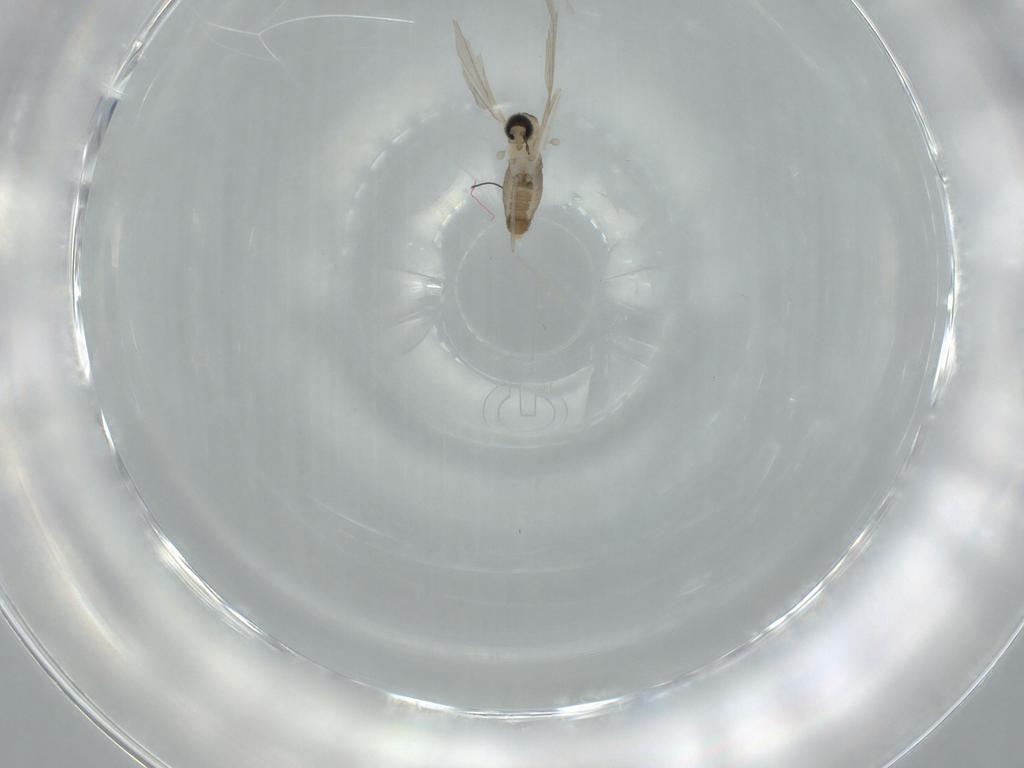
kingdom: Animalia
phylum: Arthropoda
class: Insecta
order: Diptera
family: Cecidomyiidae
